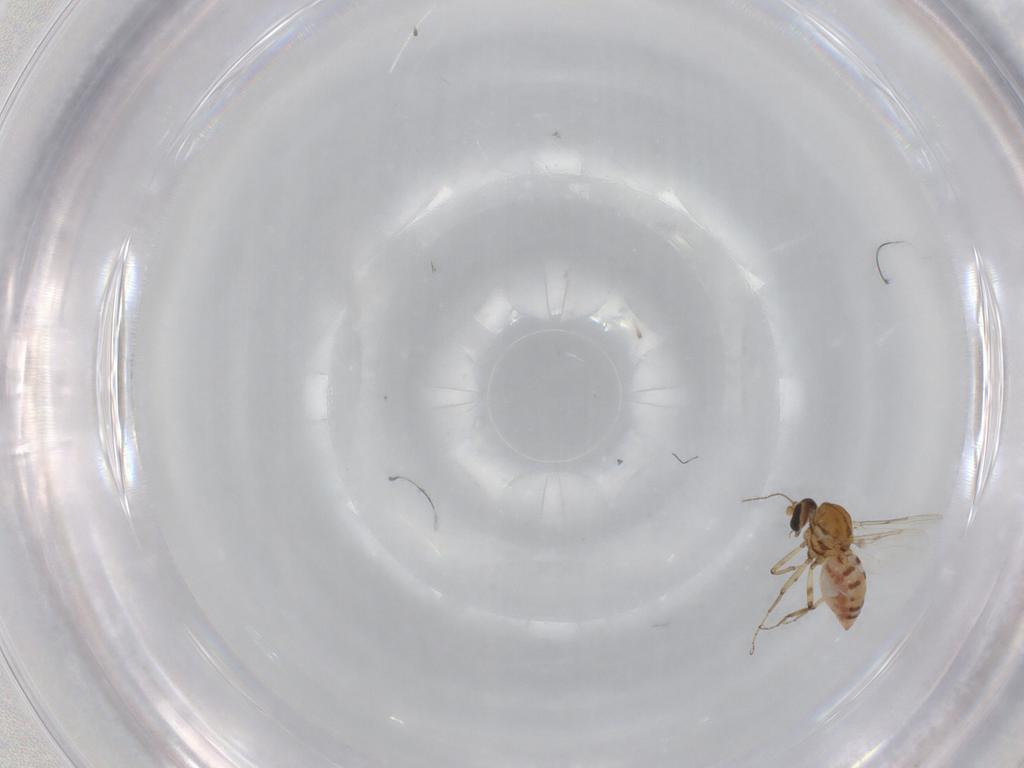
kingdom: Animalia
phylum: Arthropoda
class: Insecta
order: Diptera
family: Ceratopogonidae
